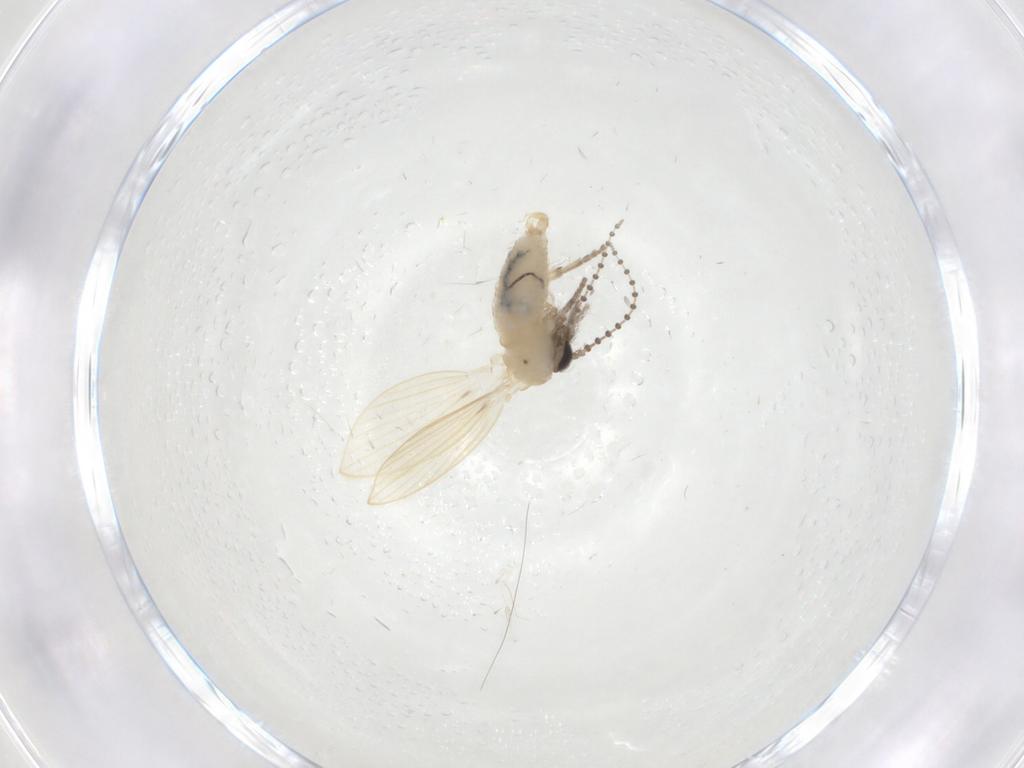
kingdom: Animalia
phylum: Arthropoda
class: Insecta
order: Diptera
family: Psychodidae
